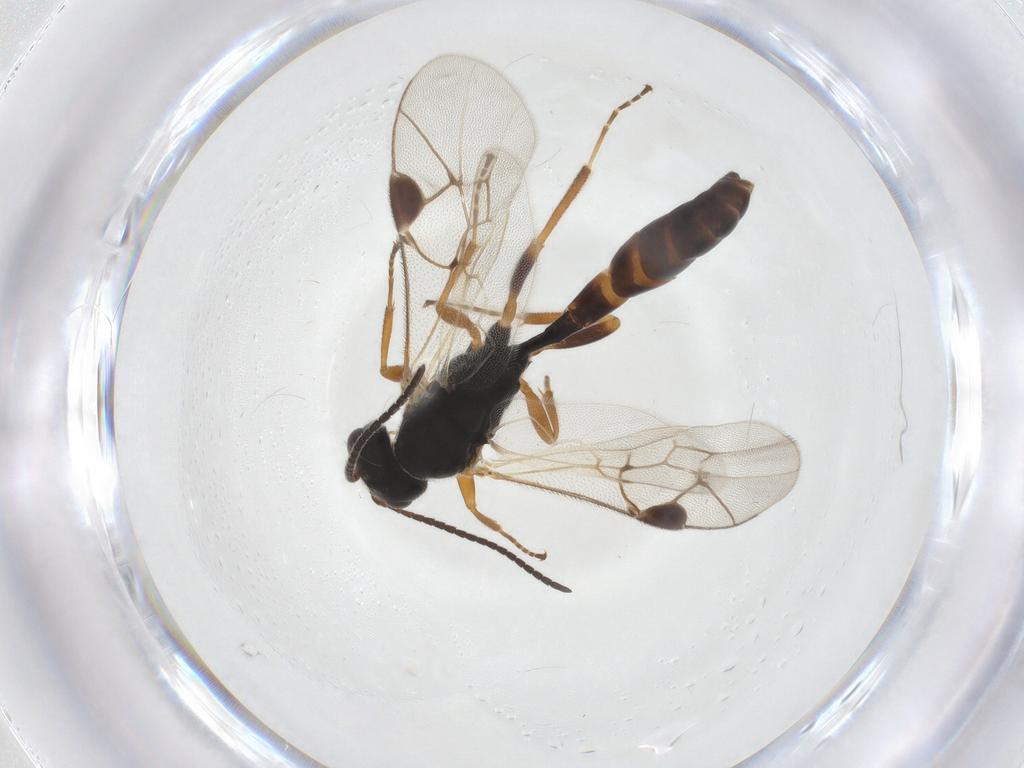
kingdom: Animalia
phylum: Arthropoda
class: Insecta
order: Hymenoptera
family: Ichneumonidae
